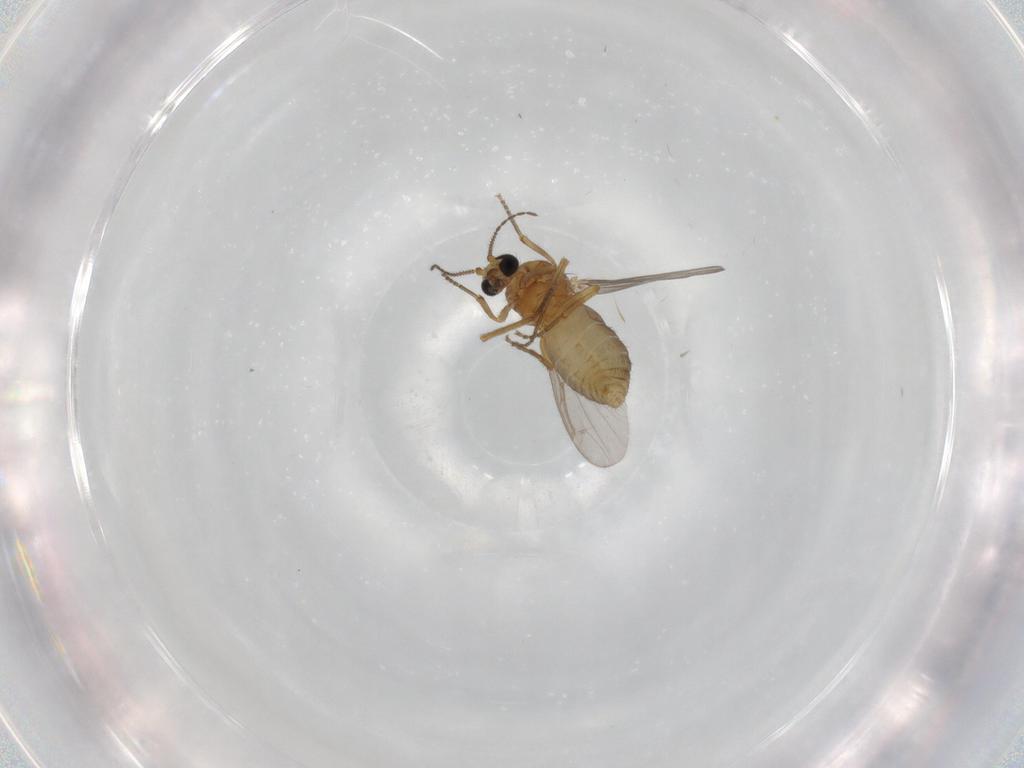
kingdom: Animalia
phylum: Arthropoda
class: Insecta
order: Diptera
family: Ceratopogonidae
